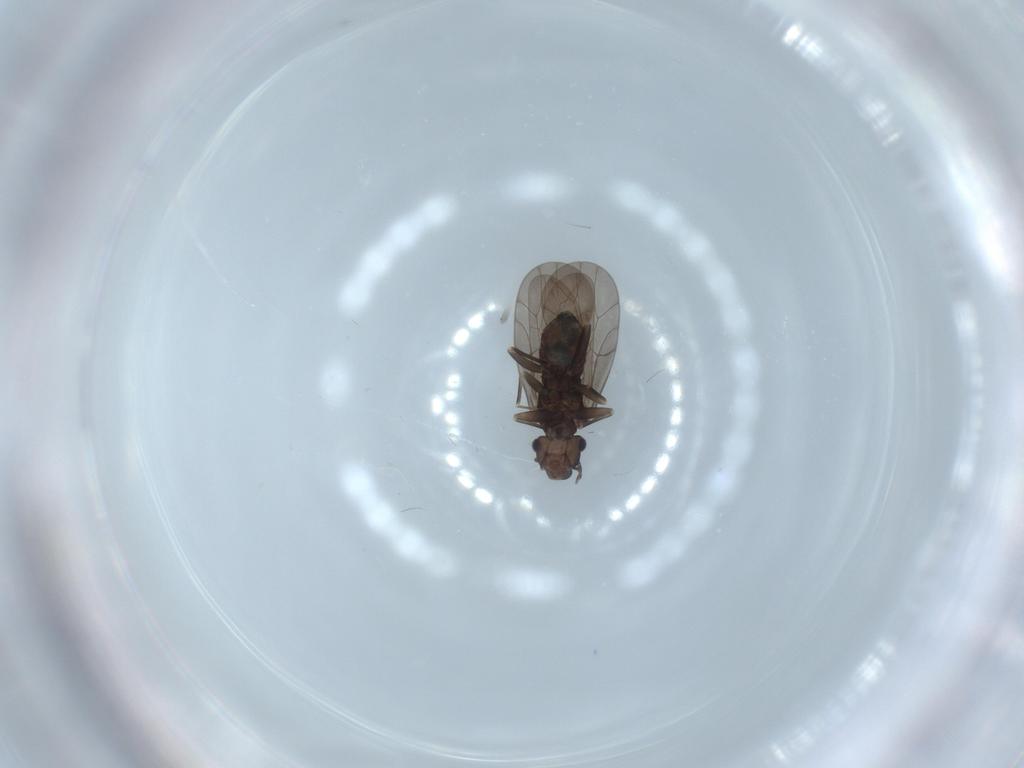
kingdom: Animalia
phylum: Arthropoda
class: Insecta
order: Psocodea
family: Lepidopsocidae
